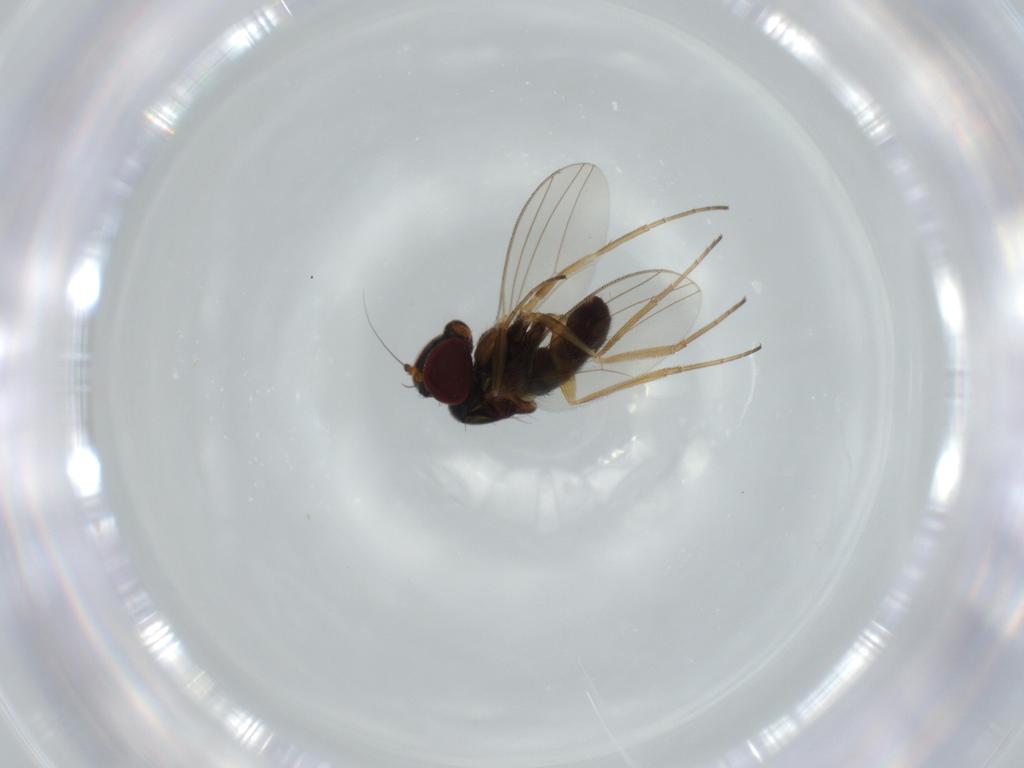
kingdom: Animalia
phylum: Arthropoda
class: Insecta
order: Diptera
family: Dolichopodidae
